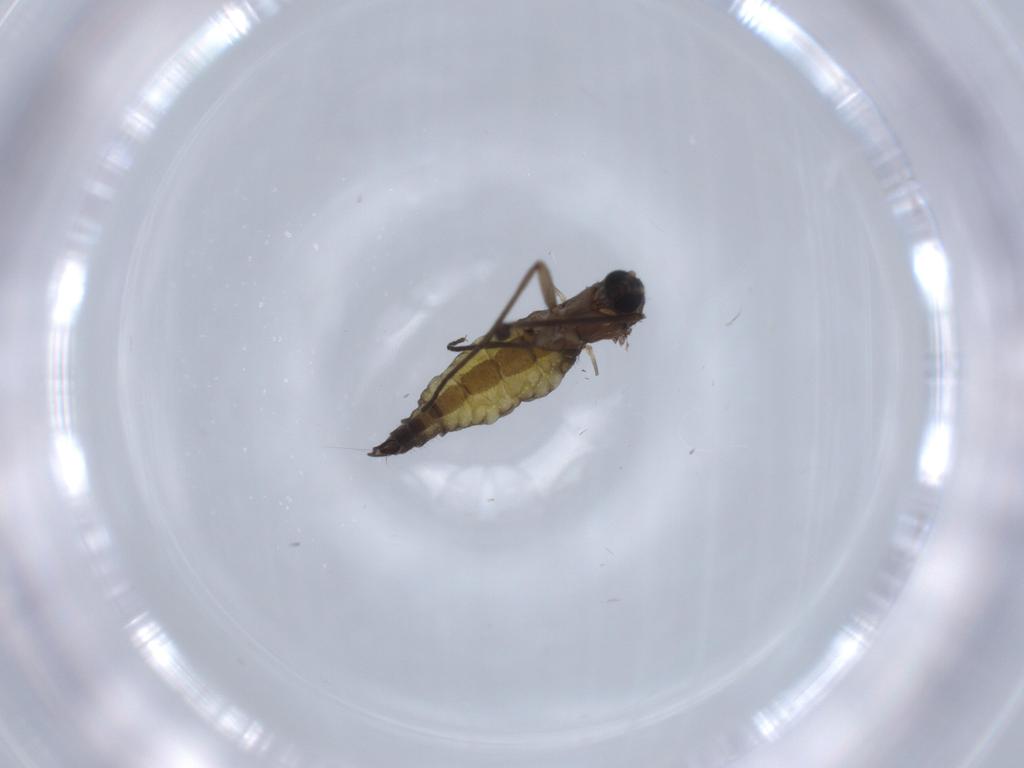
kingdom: Animalia
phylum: Arthropoda
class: Insecta
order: Diptera
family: Sciaridae
